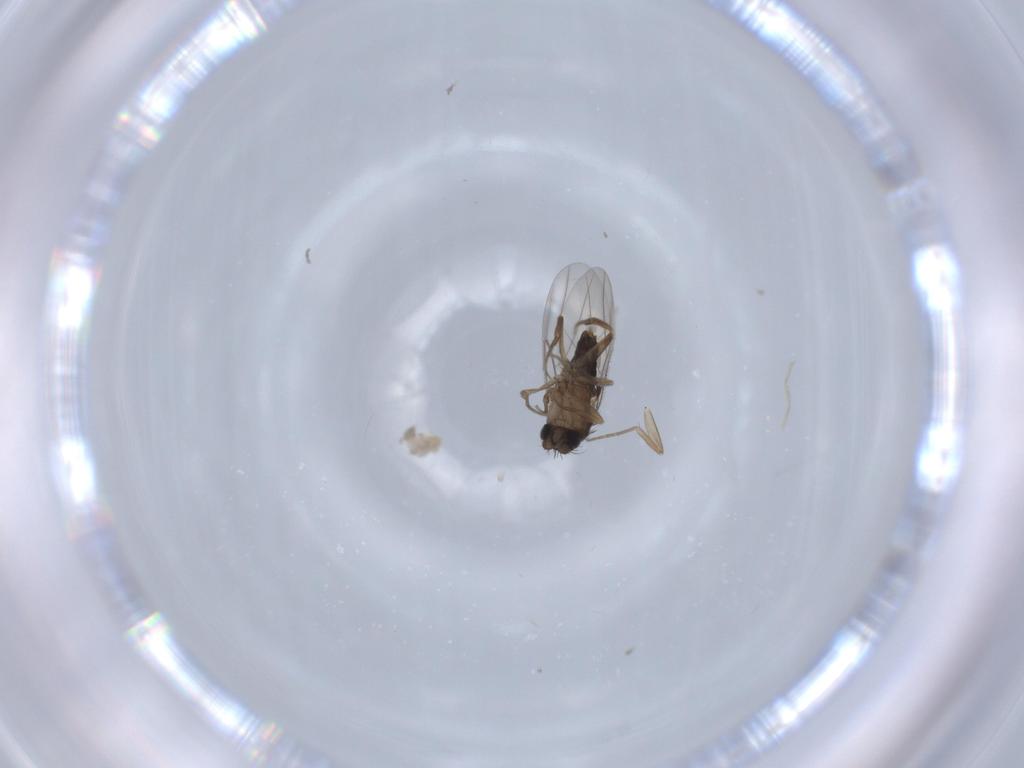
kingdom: Animalia
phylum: Arthropoda
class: Insecta
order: Diptera
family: Phoridae
